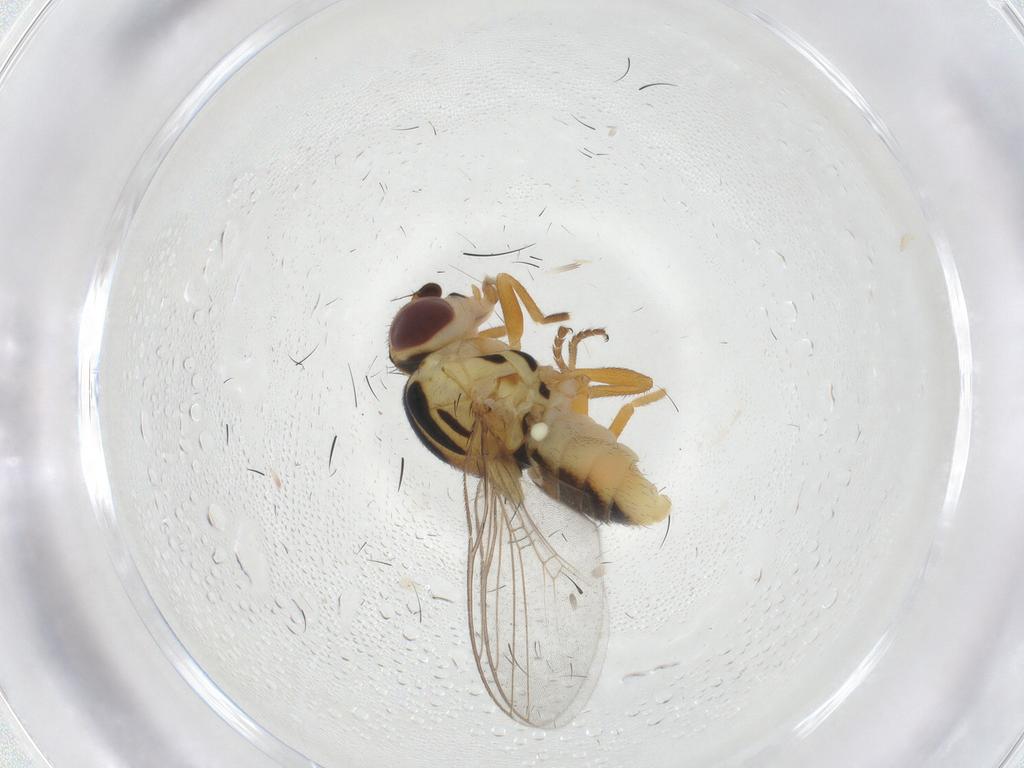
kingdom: Animalia
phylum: Arthropoda
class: Insecta
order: Diptera
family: Chloropidae
